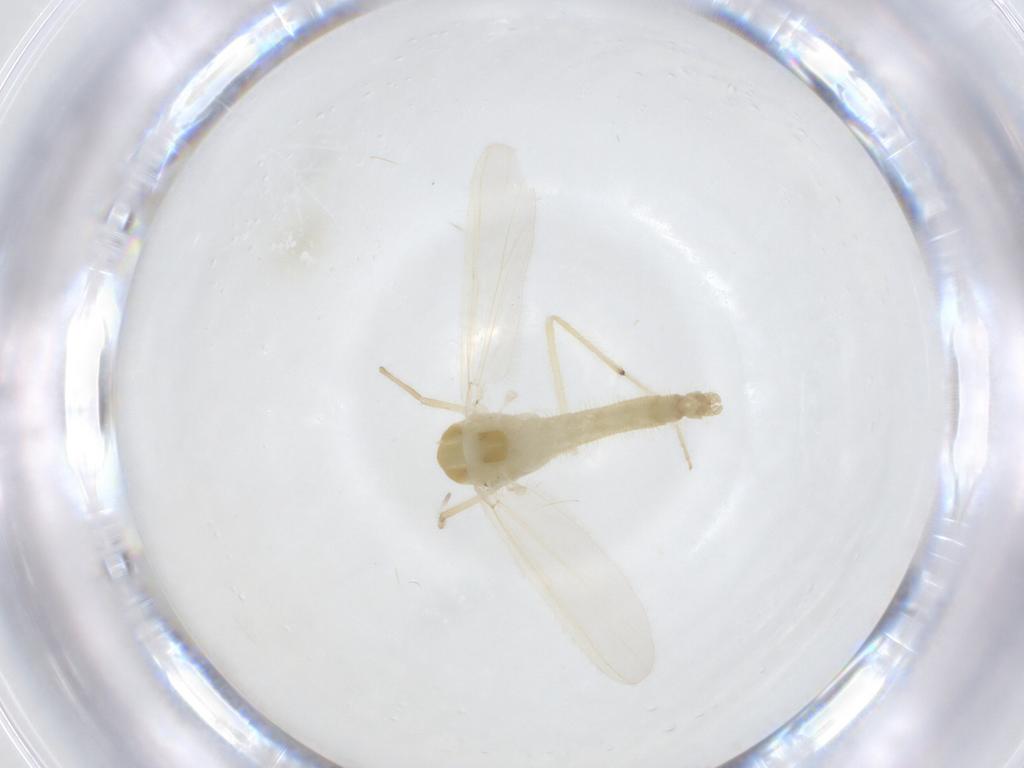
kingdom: Animalia
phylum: Arthropoda
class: Insecta
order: Diptera
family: Chironomidae
